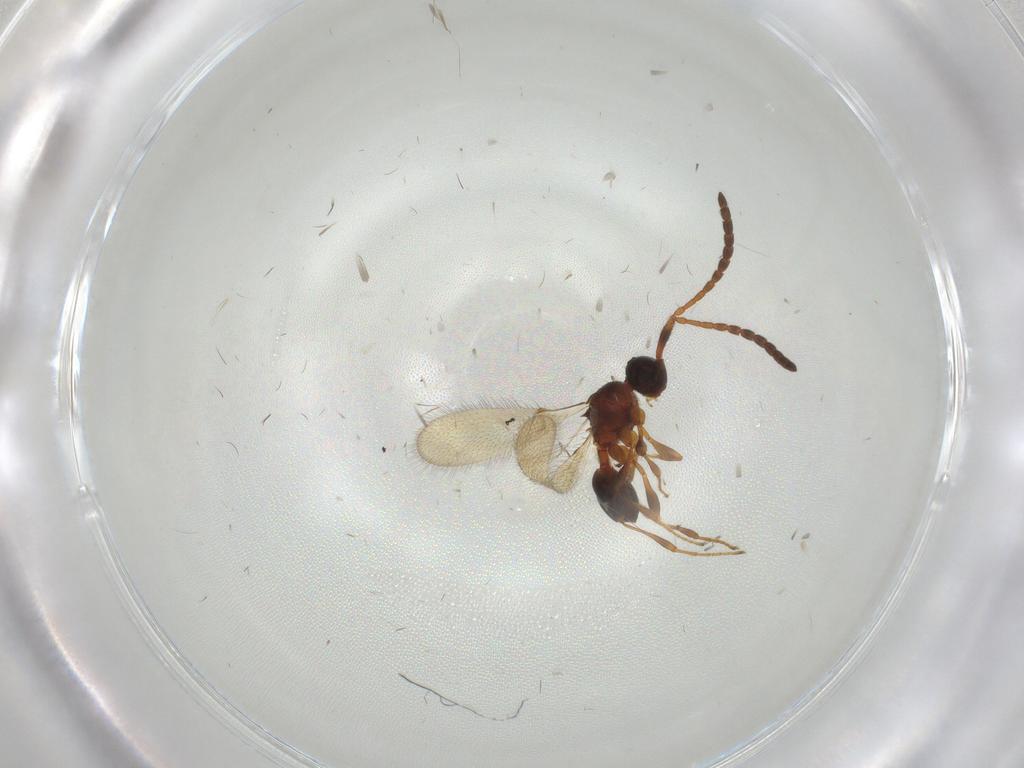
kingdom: Animalia
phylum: Arthropoda
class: Insecta
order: Hymenoptera
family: Diapriidae
